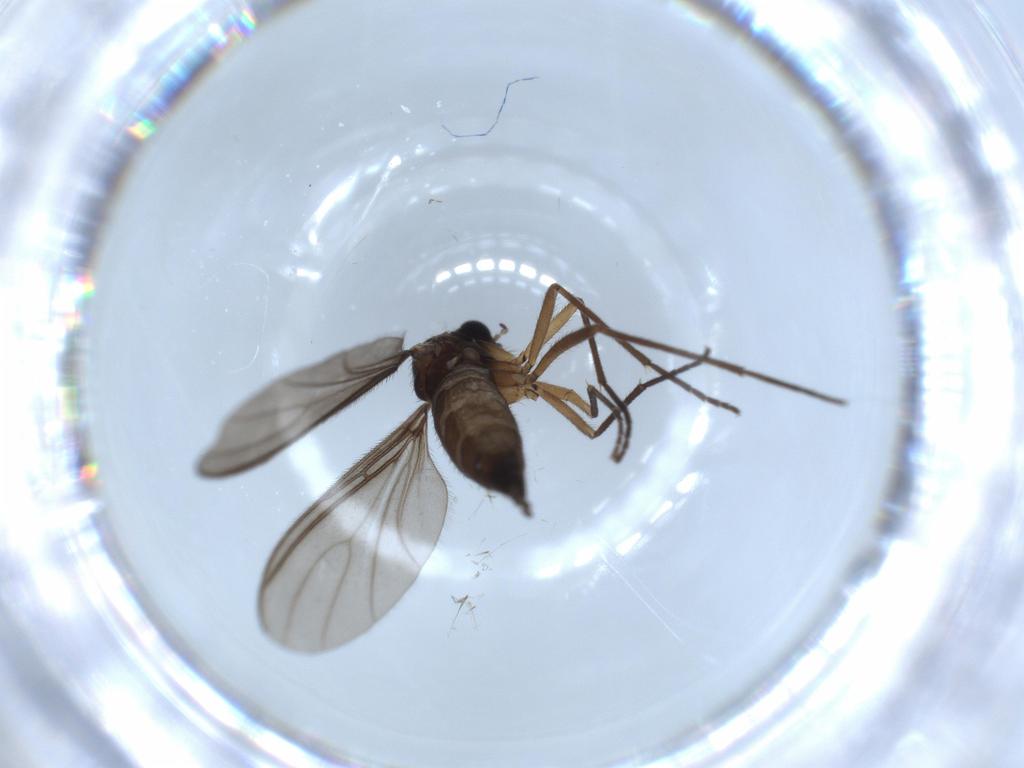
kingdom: Animalia
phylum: Arthropoda
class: Insecta
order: Diptera
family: Sciaridae
